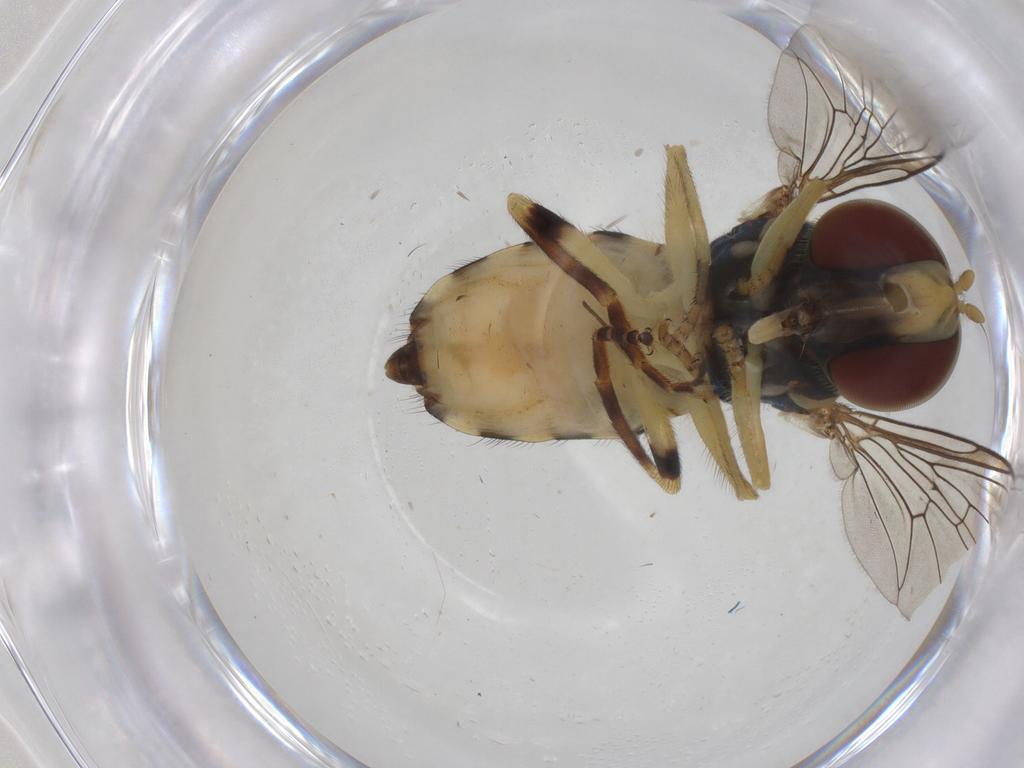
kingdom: Animalia
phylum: Arthropoda
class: Insecta
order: Diptera
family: Syrphidae
